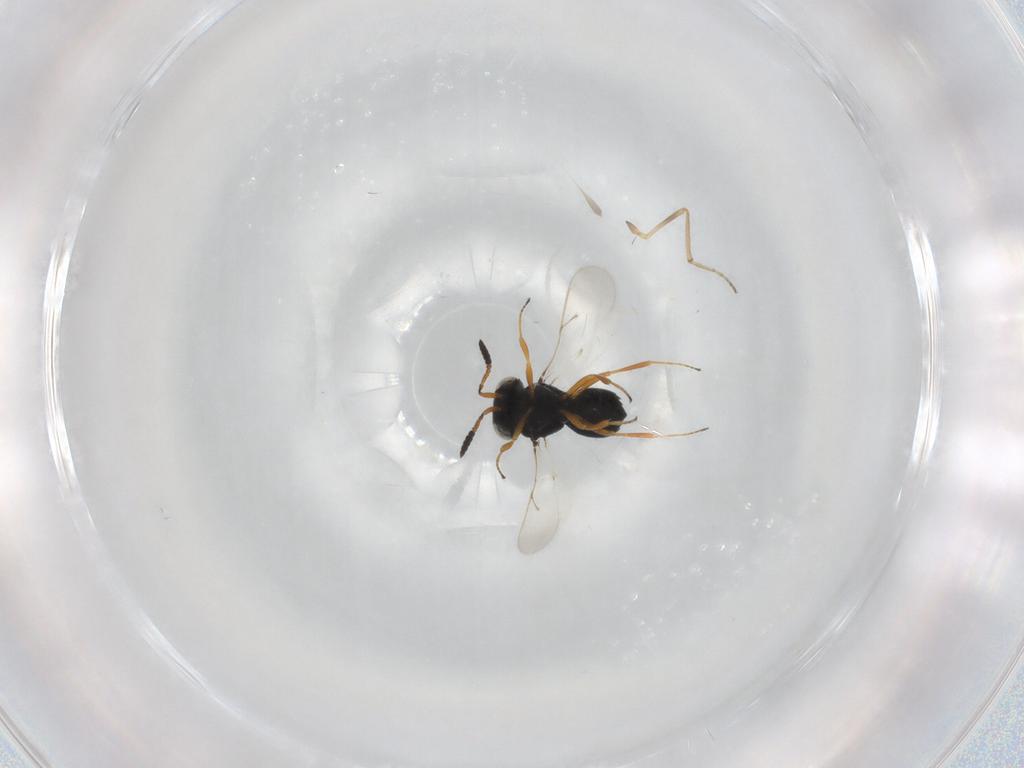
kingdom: Animalia
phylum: Arthropoda
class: Insecta
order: Hymenoptera
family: Scelionidae
